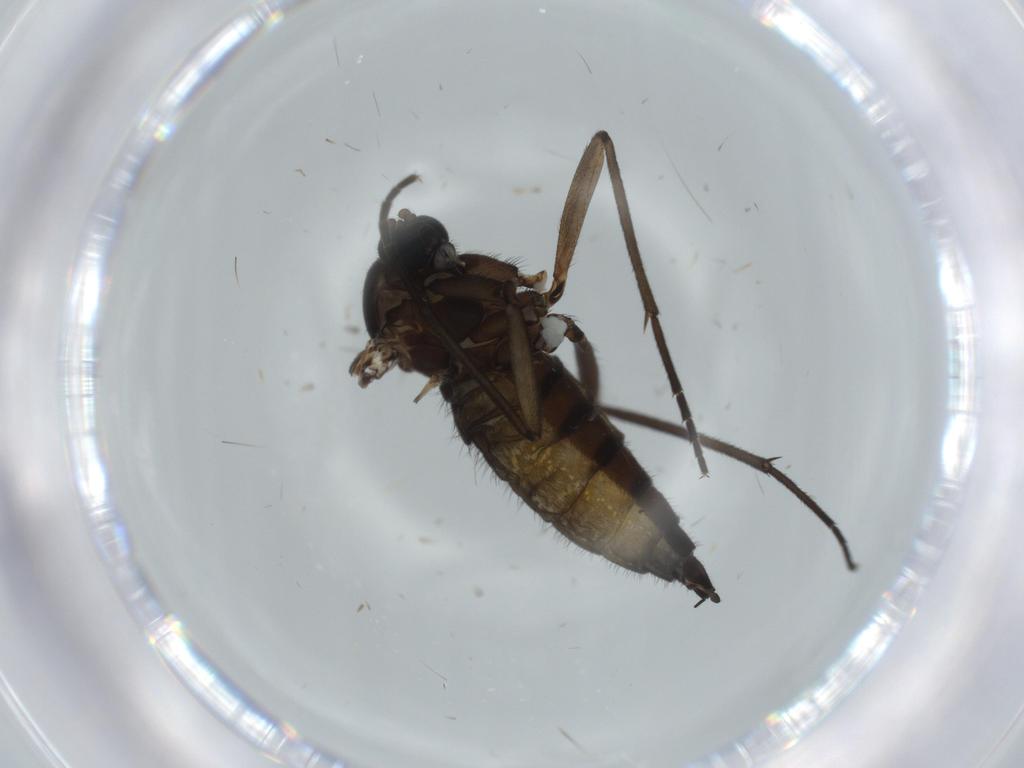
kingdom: Animalia
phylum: Arthropoda
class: Insecta
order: Diptera
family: Sciaridae
